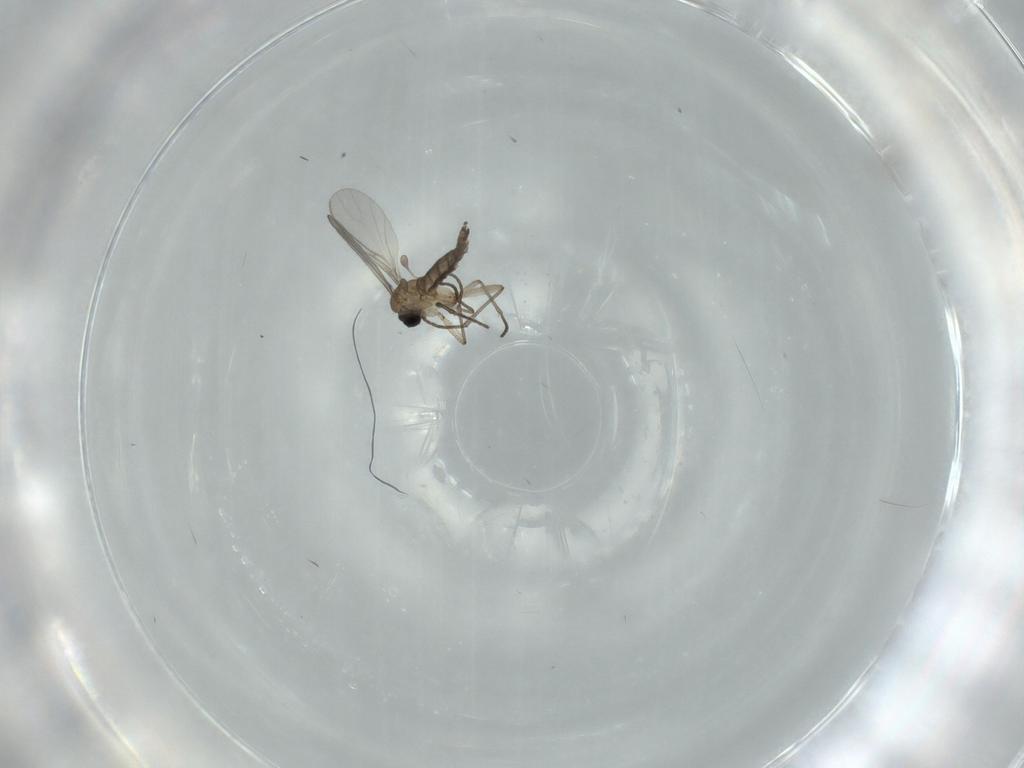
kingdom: Animalia
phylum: Arthropoda
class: Insecta
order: Diptera
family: Sciaridae
